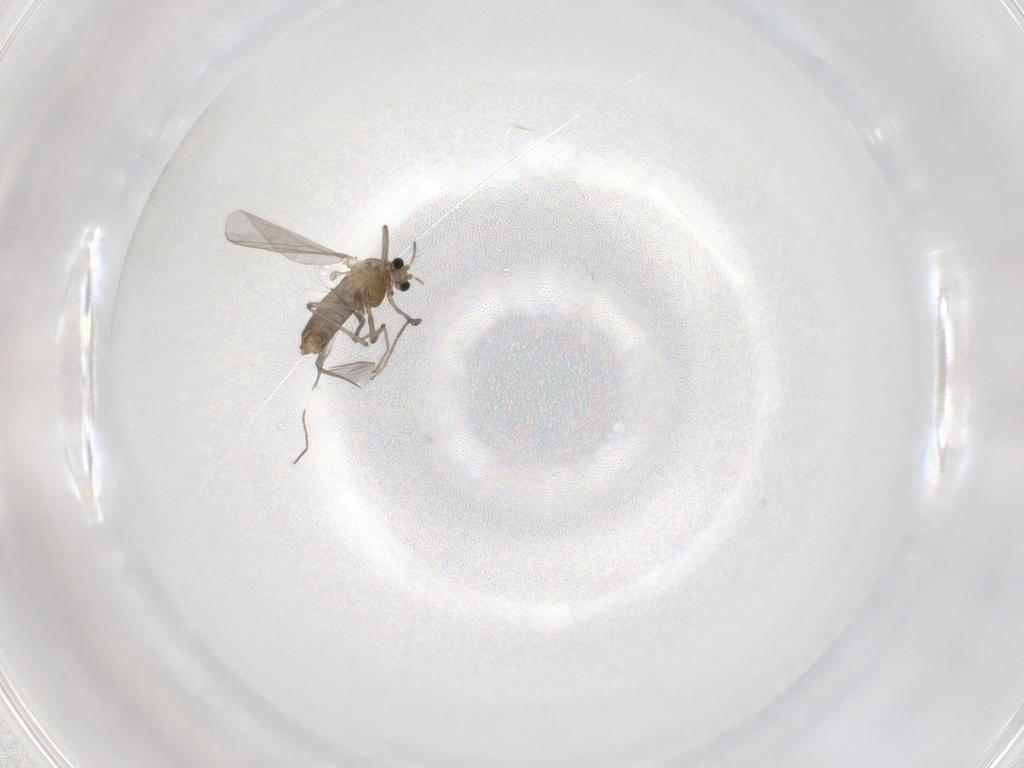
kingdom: Animalia
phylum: Arthropoda
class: Insecta
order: Diptera
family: Chironomidae
